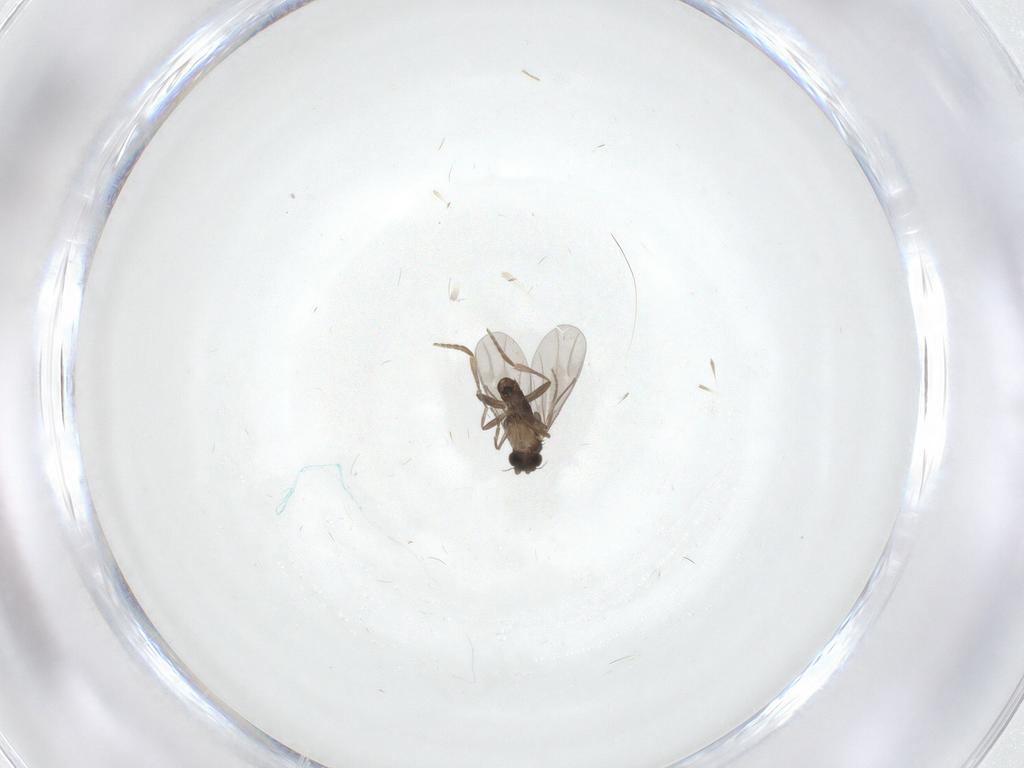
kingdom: Animalia
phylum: Arthropoda
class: Insecta
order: Diptera
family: Cecidomyiidae
